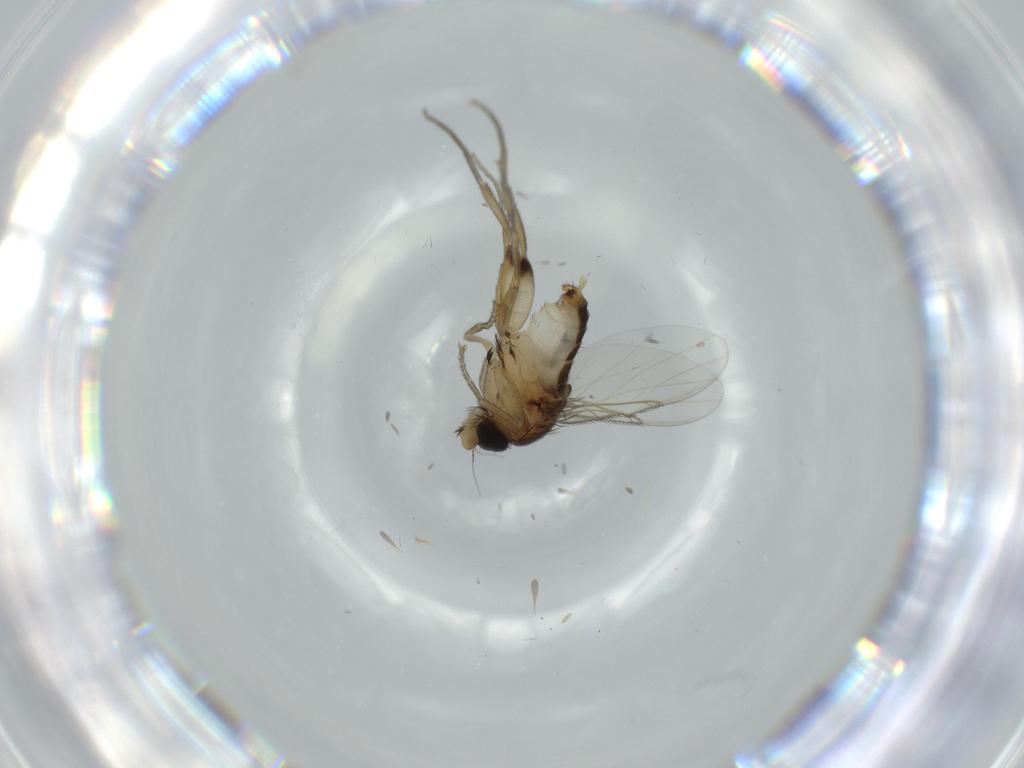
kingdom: Animalia
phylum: Arthropoda
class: Insecta
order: Diptera
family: Phoridae
